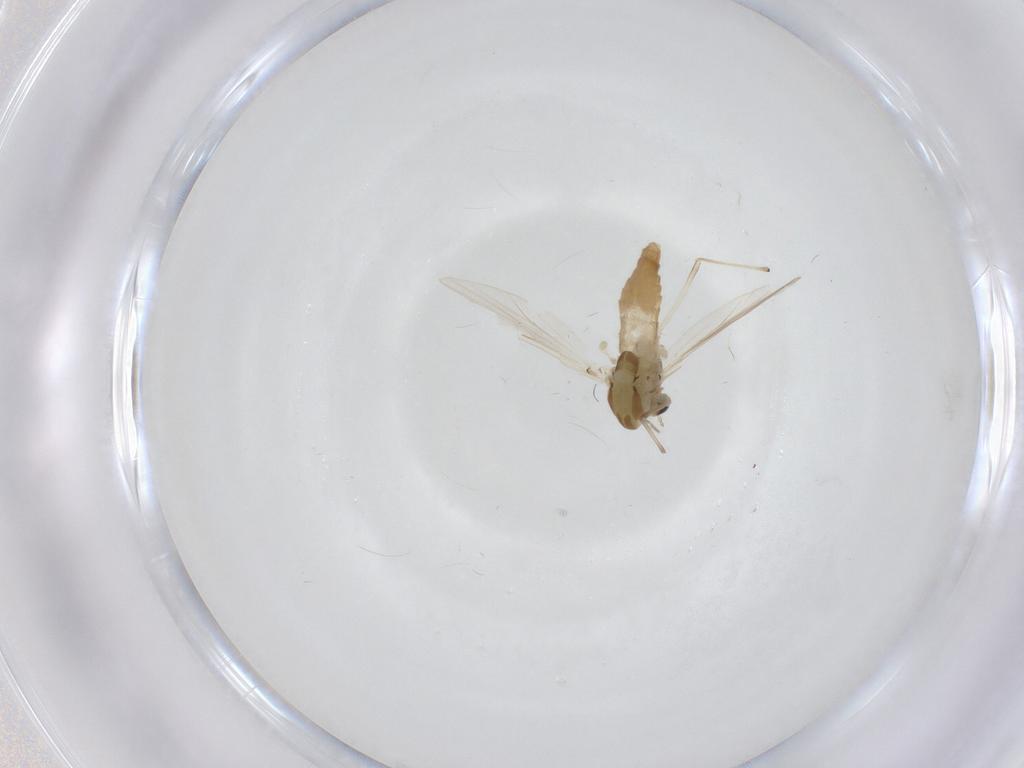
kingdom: Animalia
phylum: Arthropoda
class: Insecta
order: Diptera
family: Chironomidae
